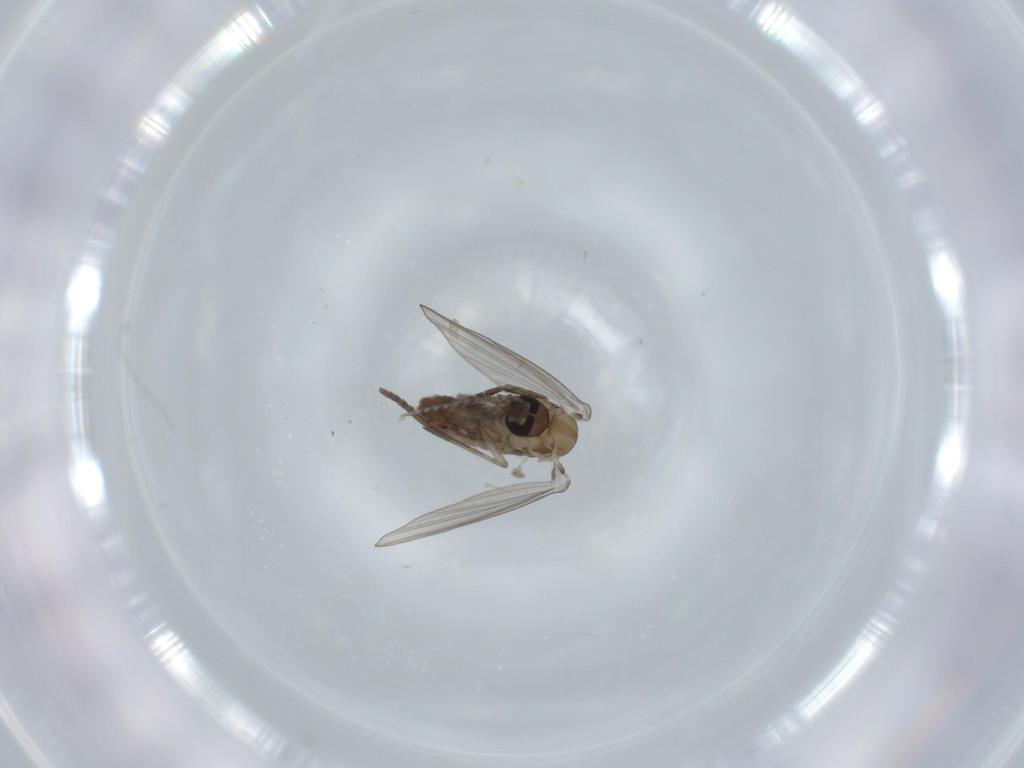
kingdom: Animalia
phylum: Arthropoda
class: Insecta
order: Diptera
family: Psychodidae
